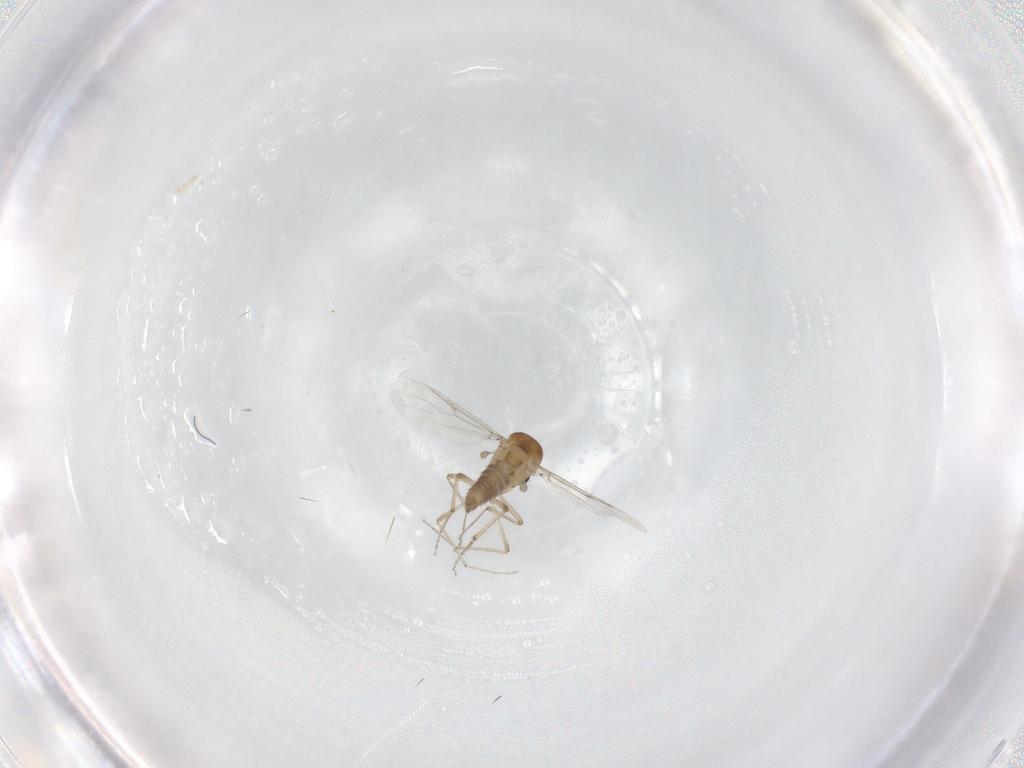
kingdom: Animalia
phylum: Arthropoda
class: Insecta
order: Diptera
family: Ceratopogonidae
